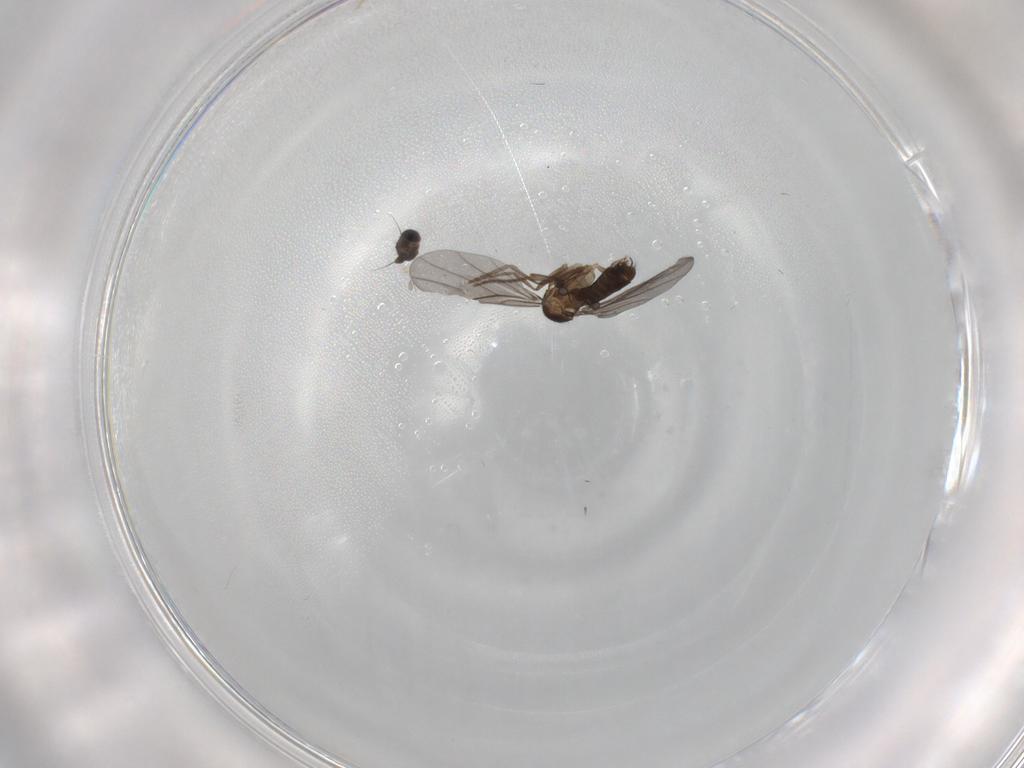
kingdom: Animalia
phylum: Arthropoda
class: Insecta
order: Diptera
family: Phoridae
